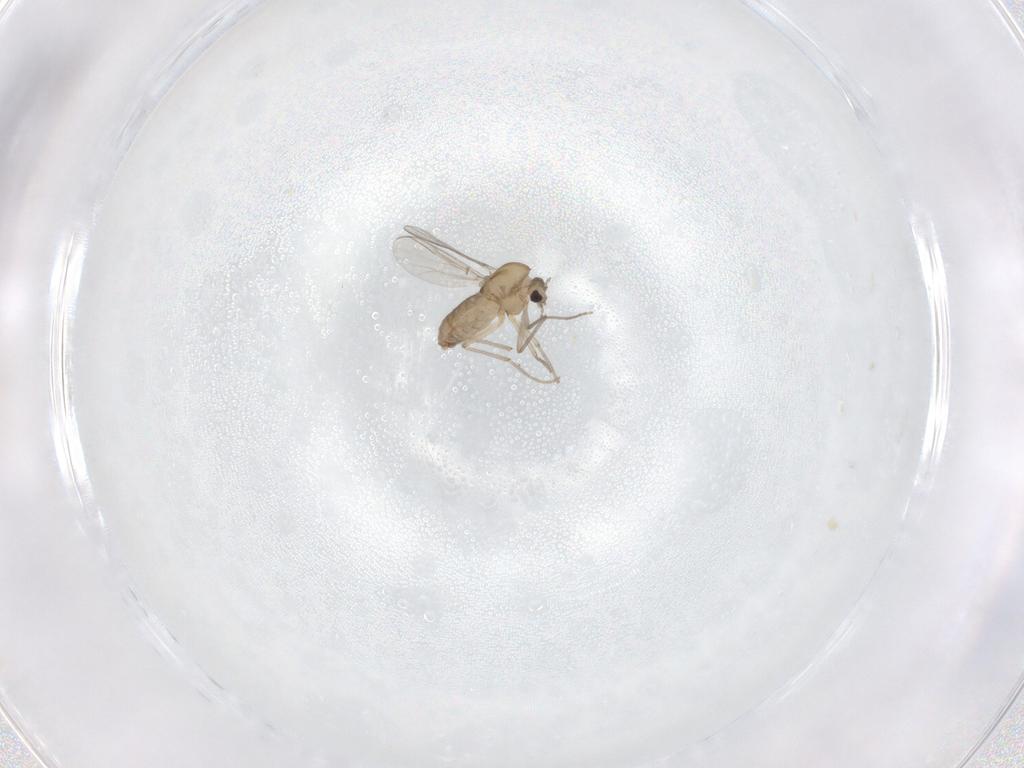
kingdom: Animalia
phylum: Arthropoda
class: Insecta
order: Diptera
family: Chironomidae
